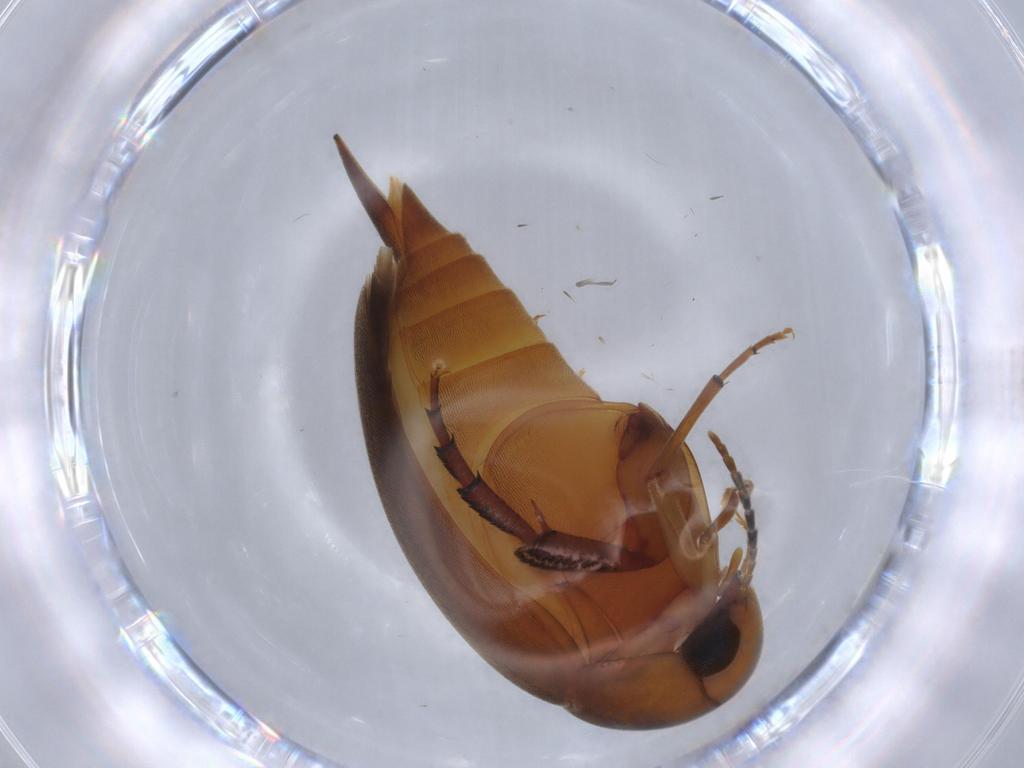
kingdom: Animalia
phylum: Arthropoda
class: Insecta
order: Coleoptera
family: Mordellidae
